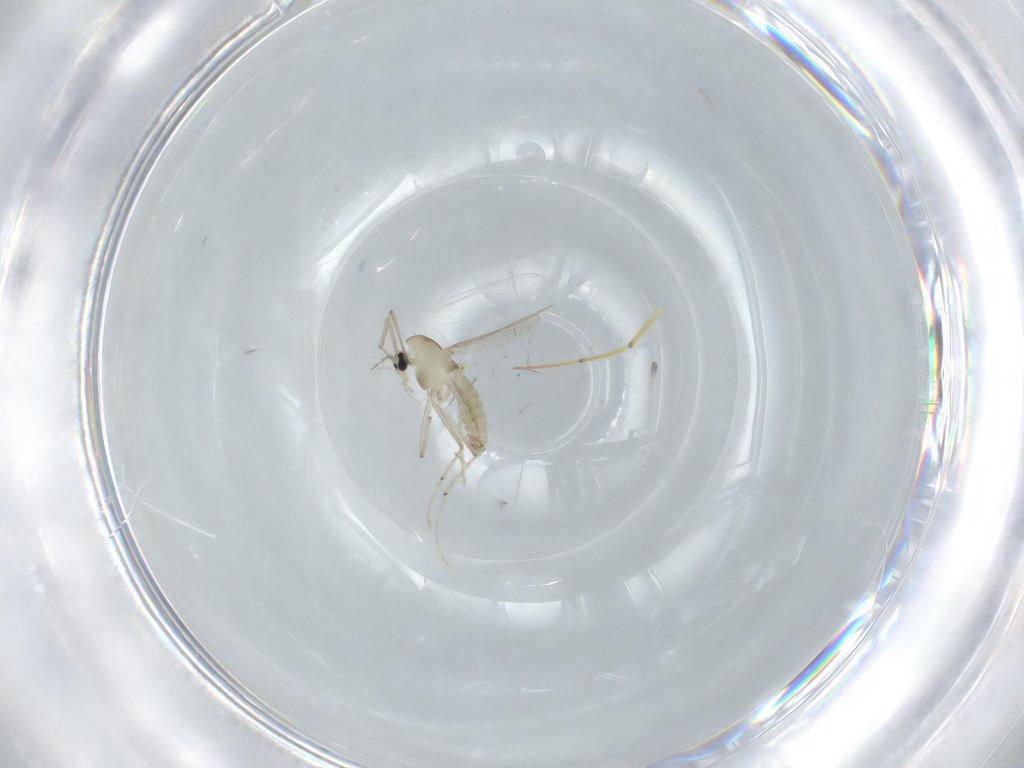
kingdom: Animalia
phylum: Arthropoda
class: Insecta
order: Diptera
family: Chironomidae
